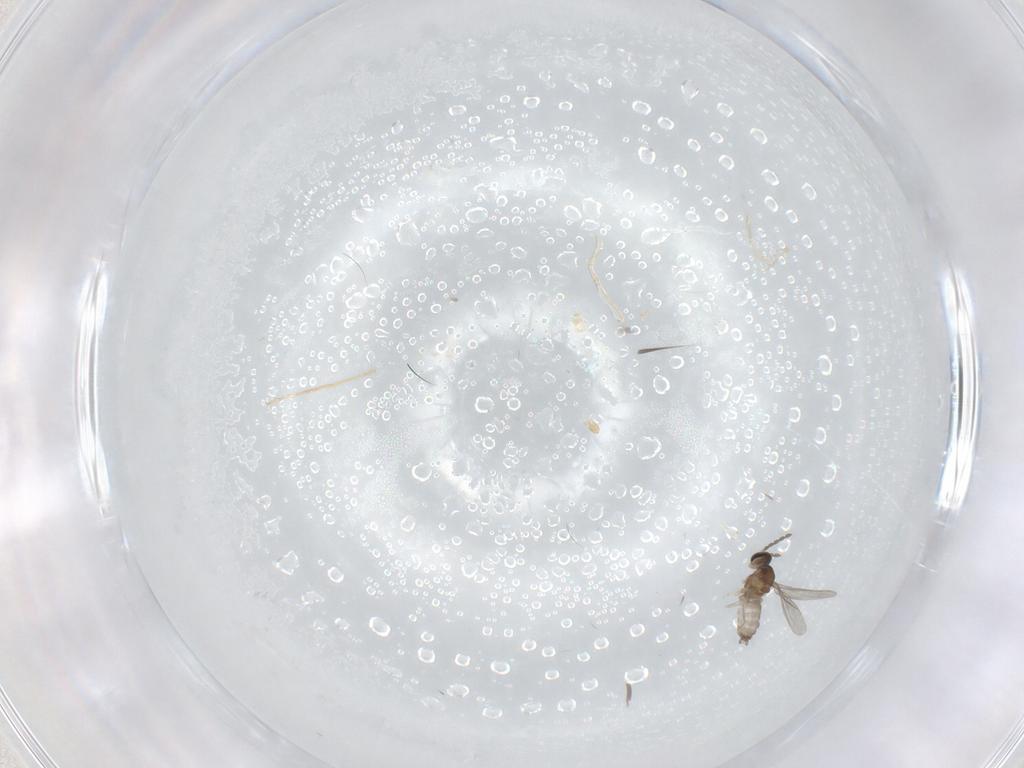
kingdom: Animalia
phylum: Arthropoda
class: Insecta
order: Diptera
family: Cecidomyiidae
